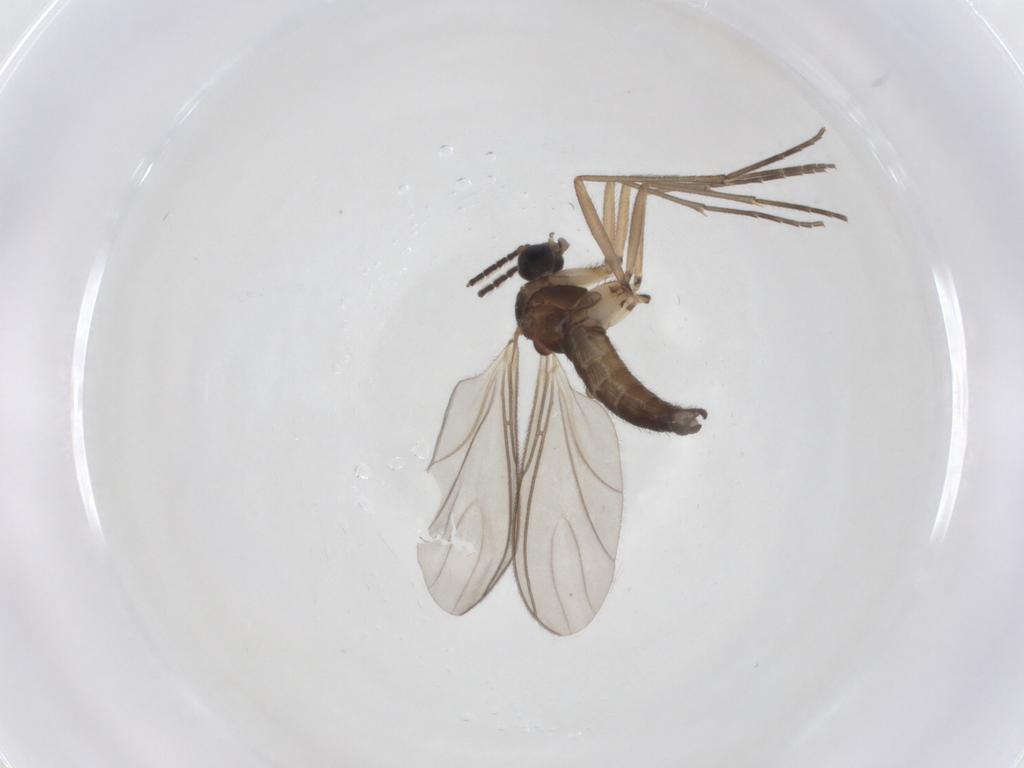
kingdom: Animalia
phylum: Arthropoda
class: Insecta
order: Diptera
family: Sciaridae
